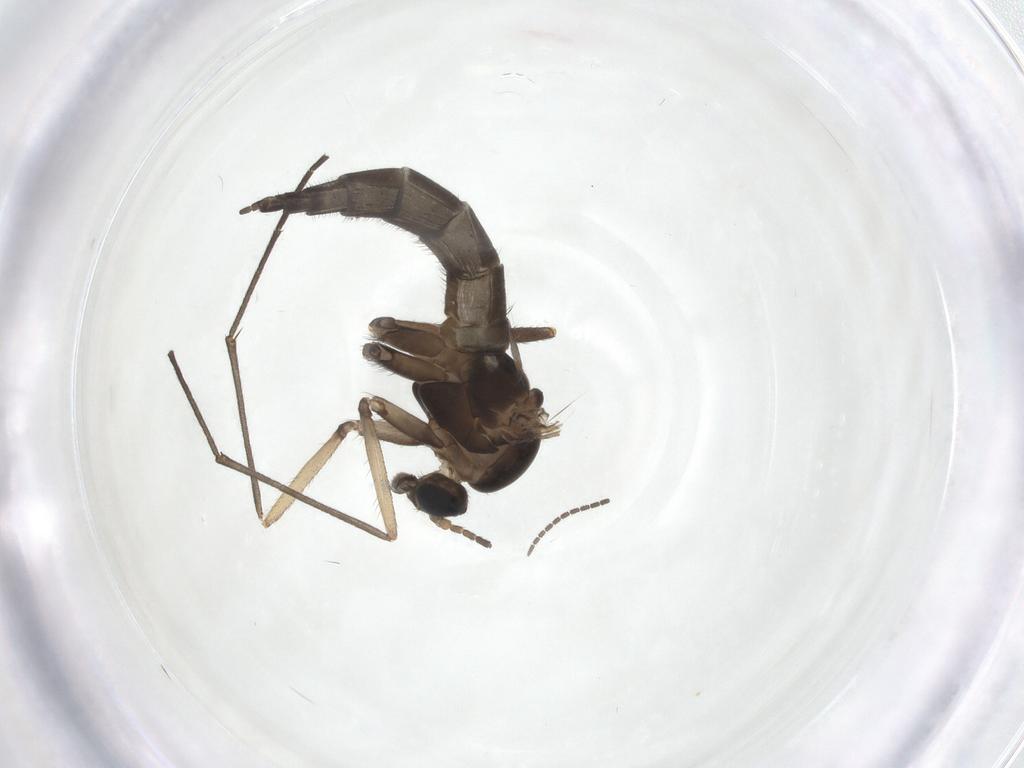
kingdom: Animalia
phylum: Arthropoda
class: Insecta
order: Diptera
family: Sciaridae
